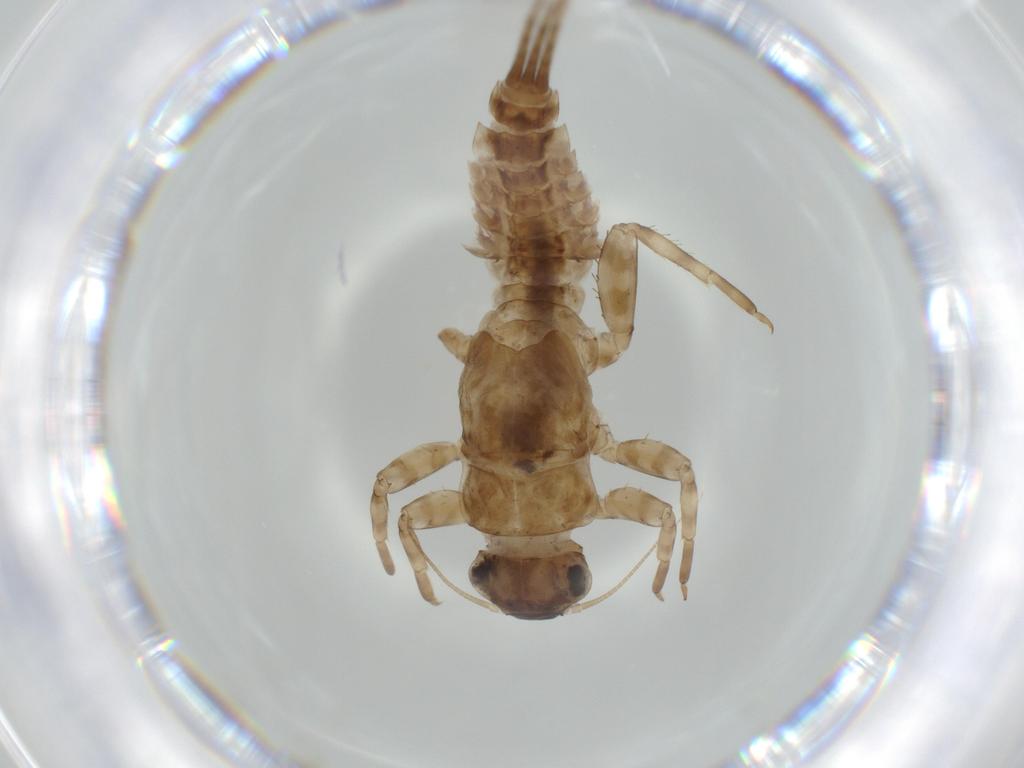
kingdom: Animalia
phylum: Arthropoda
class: Insecta
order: Ephemeroptera
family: Ephemerellidae
